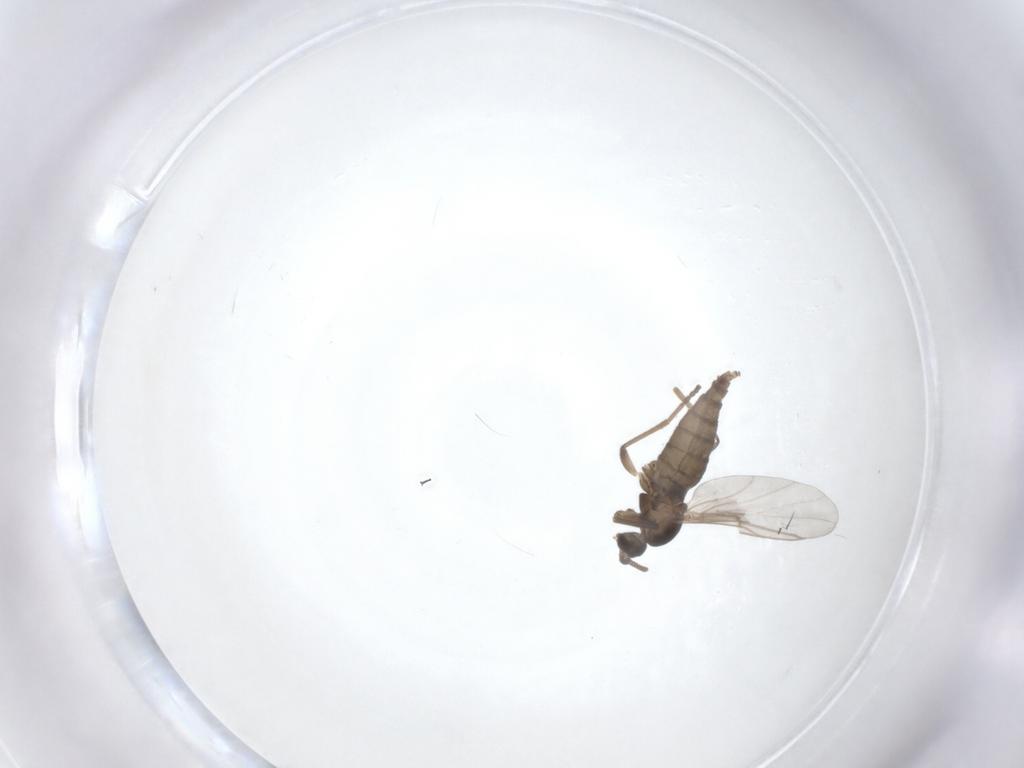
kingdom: Animalia
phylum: Arthropoda
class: Insecta
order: Diptera
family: Cecidomyiidae
